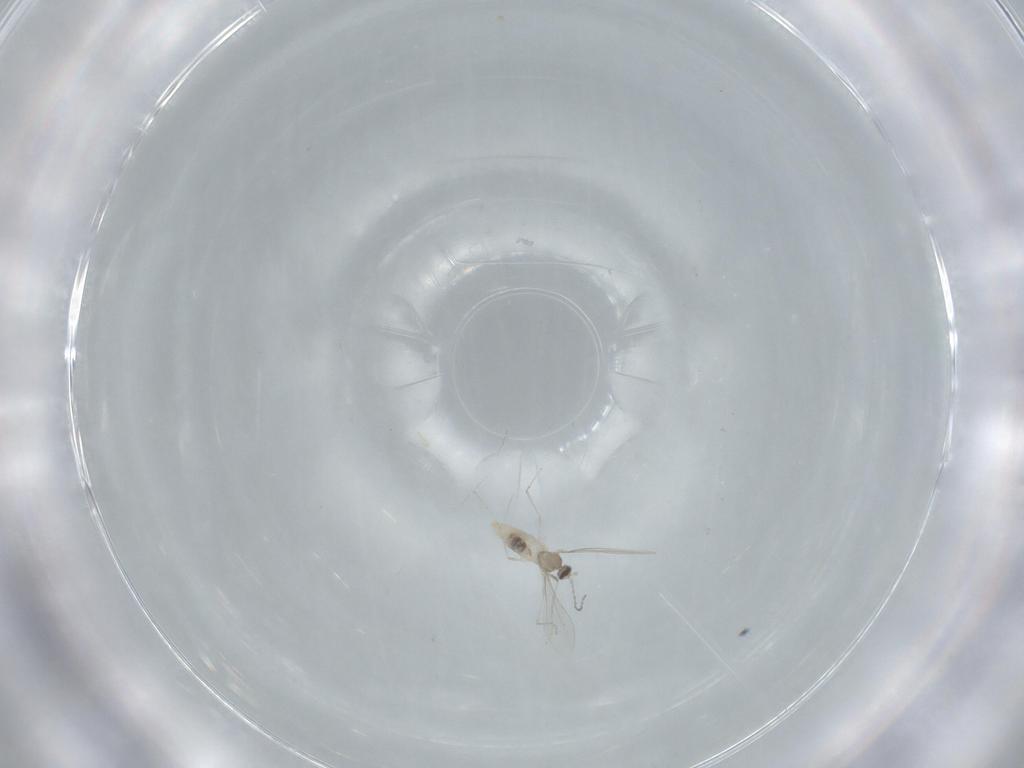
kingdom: Animalia
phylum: Arthropoda
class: Insecta
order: Diptera
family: Cecidomyiidae
